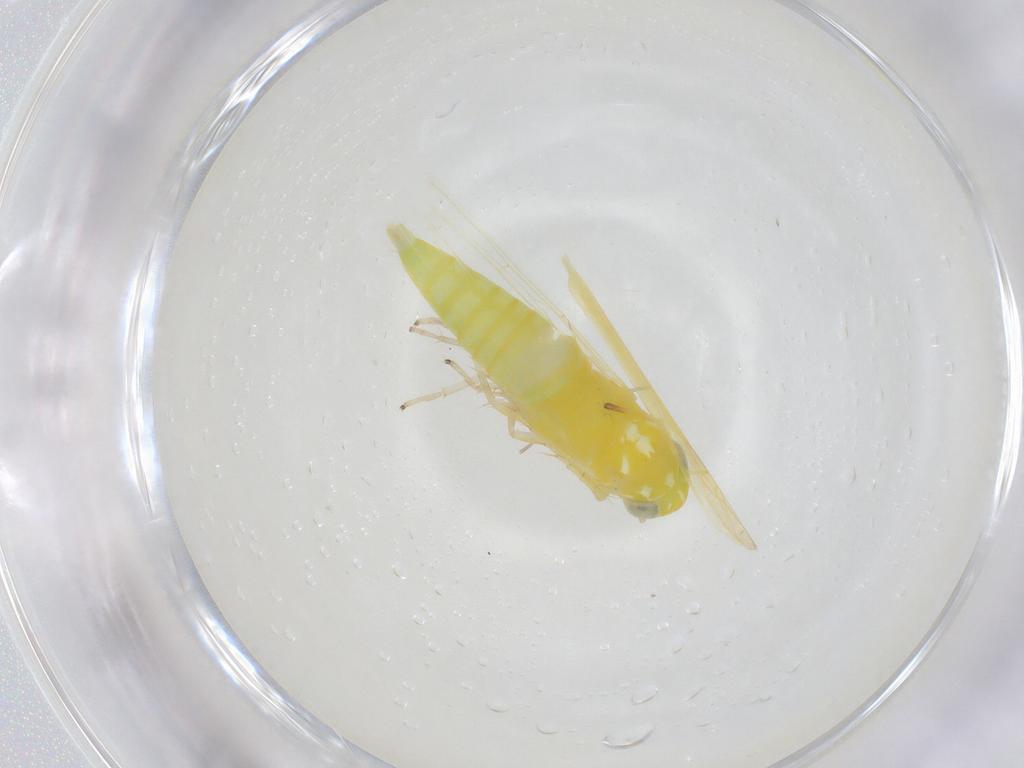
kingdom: Animalia
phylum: Arthropoda
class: Insecta
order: Hemiptera
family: Cicadellidae
